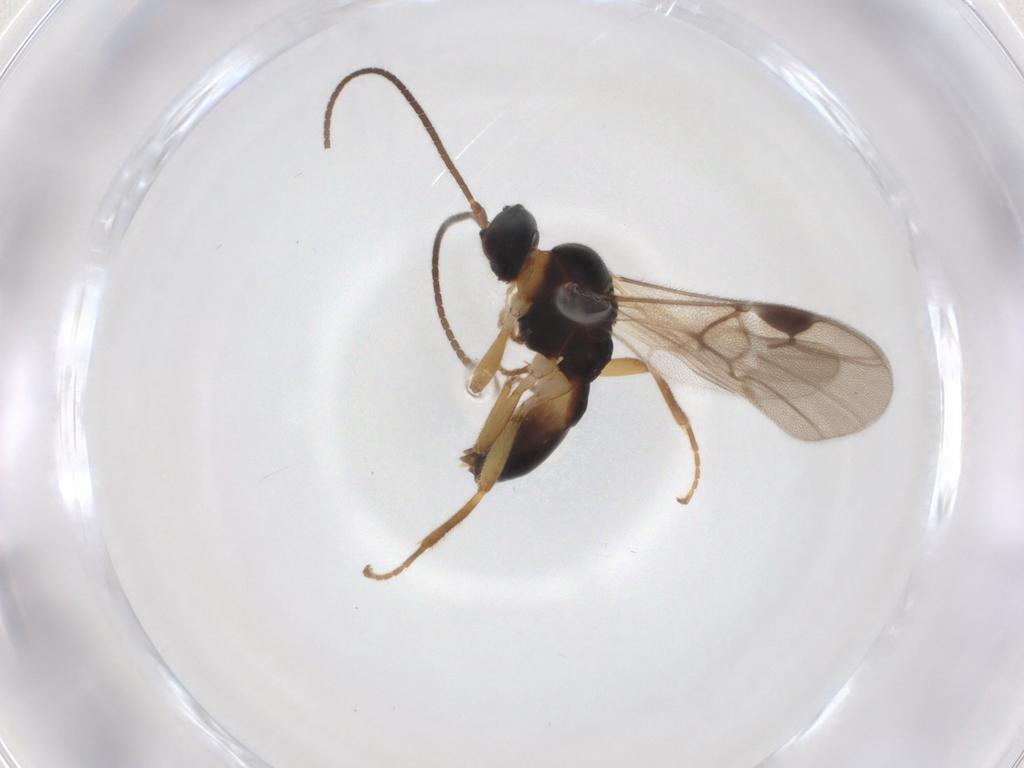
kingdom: Animalia
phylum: Arthropoda
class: Insecta
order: Hymenoptera
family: Braconidae
